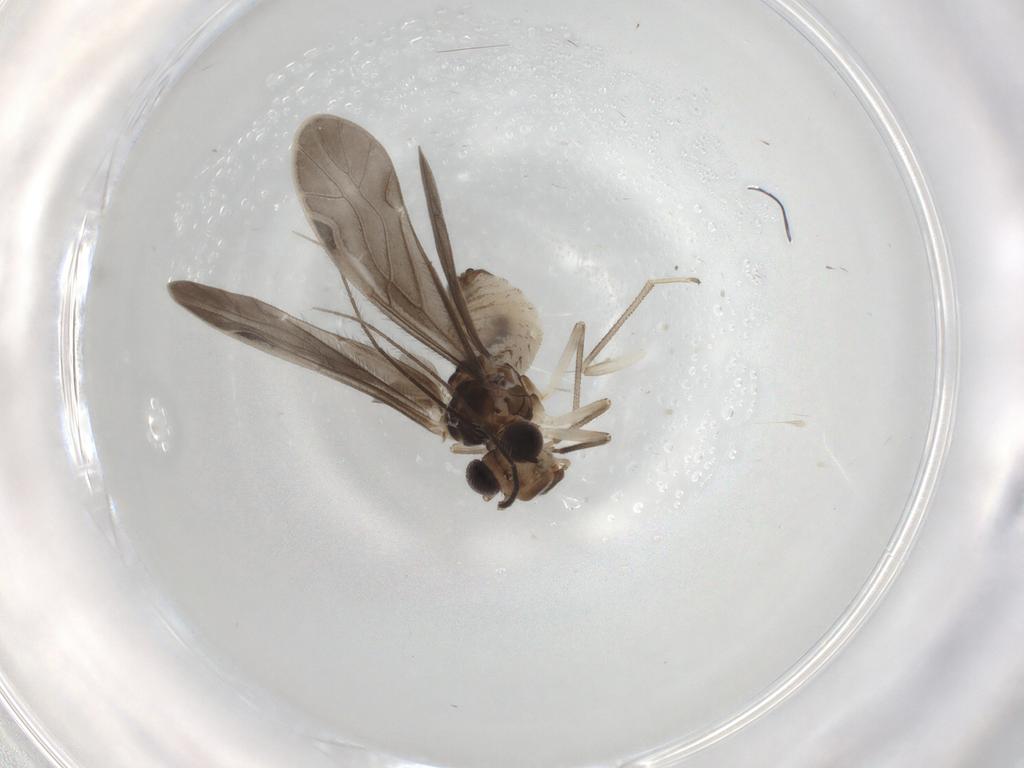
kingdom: Animalia
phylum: Arthropoda
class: Insecta
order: Psocodea
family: Caeciliusidae
